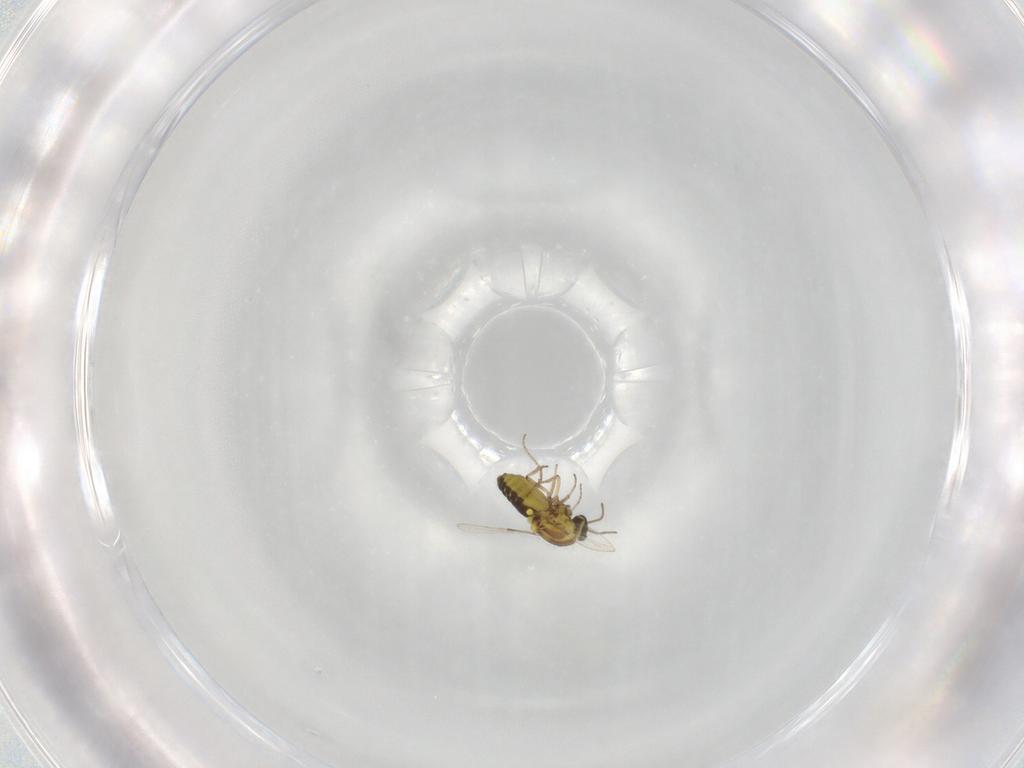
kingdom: Animalia
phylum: Arthropoda
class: Insecta
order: Diptera
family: Ceratopogonidae
